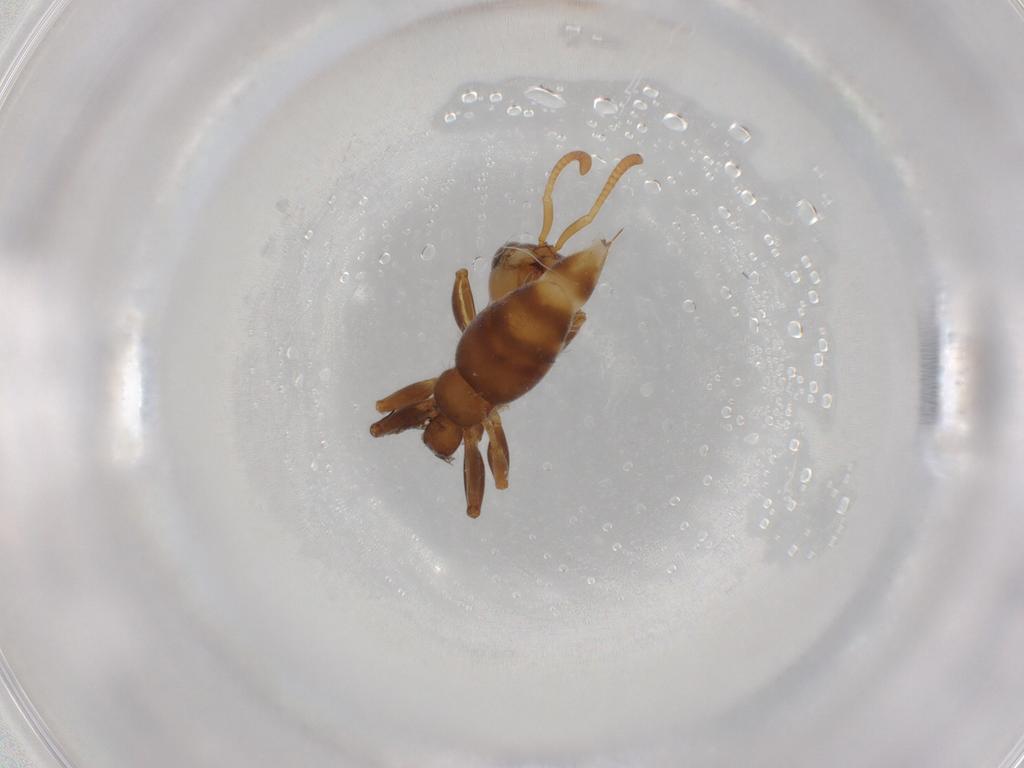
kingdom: Animalia
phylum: Arthropoda
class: Insecta
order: Hymenoptera
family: Formicidae
